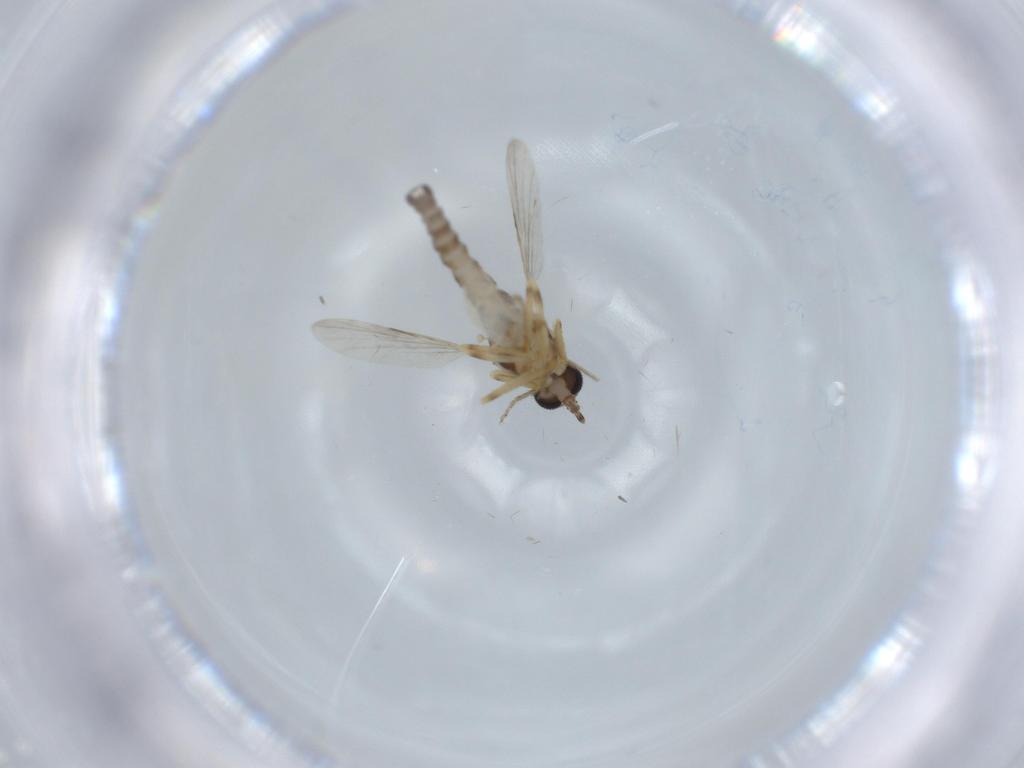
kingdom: Animalia
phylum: Arthropoda
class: Insecta
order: Diptera
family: Ceratopogonidae
